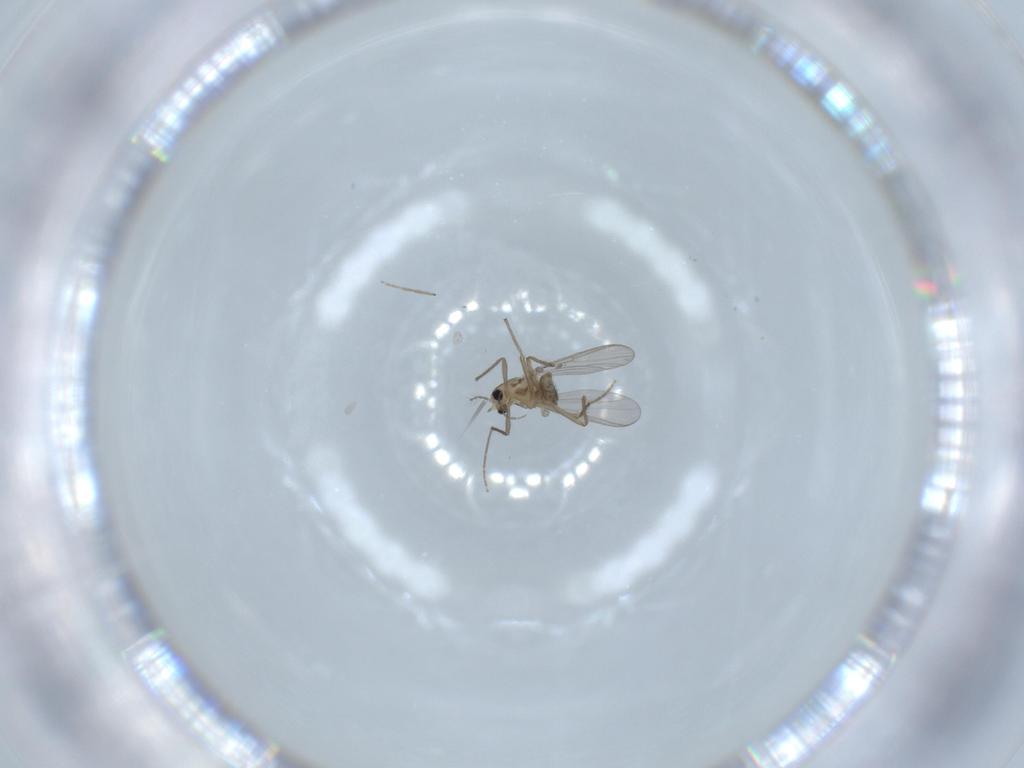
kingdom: Animalia
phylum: Arthropoda
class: Insecta
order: Diptera
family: Chironomidae
